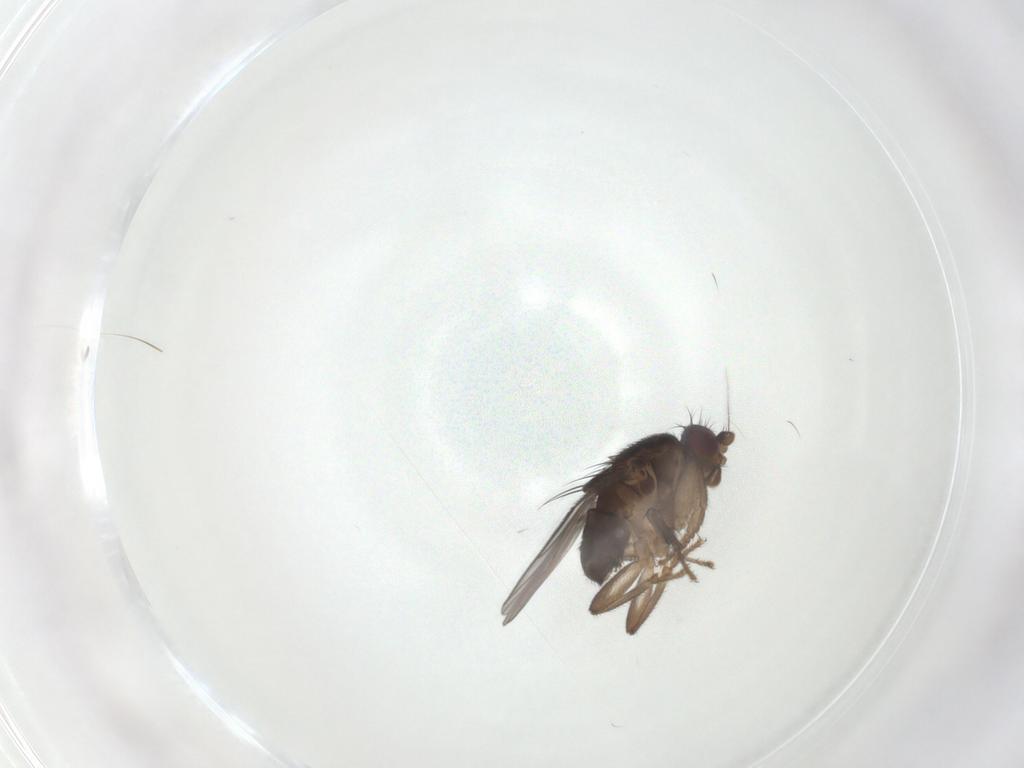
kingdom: Animalia
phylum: Arthropoda
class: Insecta
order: Diptera
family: Sphaeroceridae
